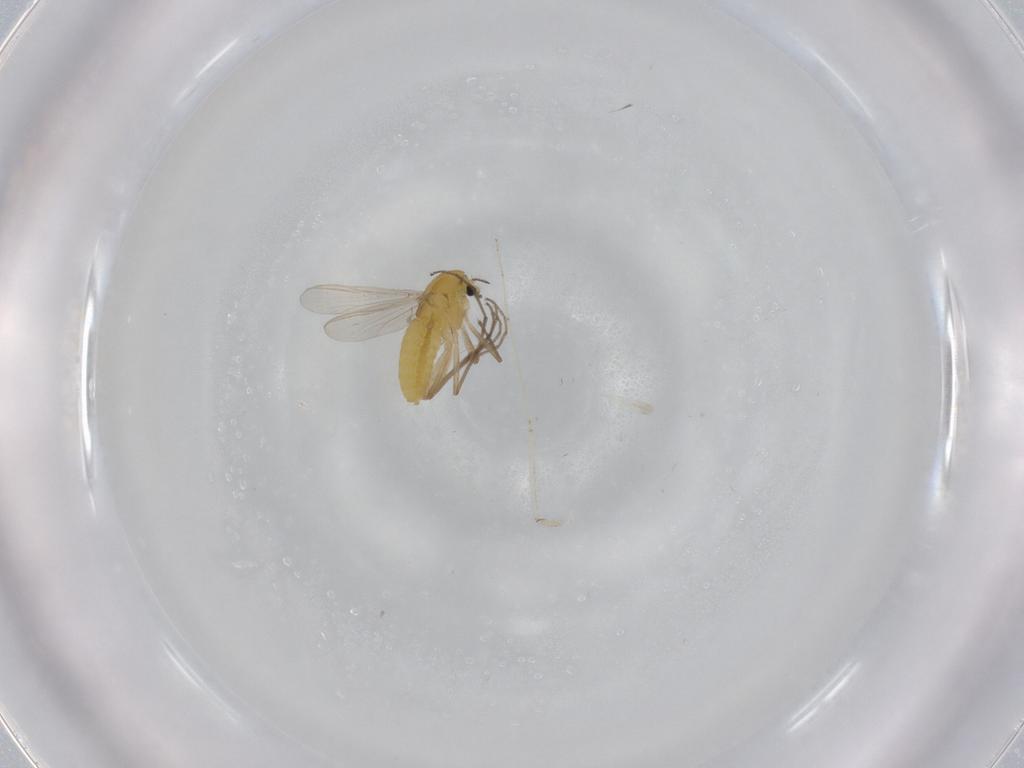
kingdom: Animalia
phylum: Arthropoda
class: Insecta
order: Diptera
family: Chironomidae
